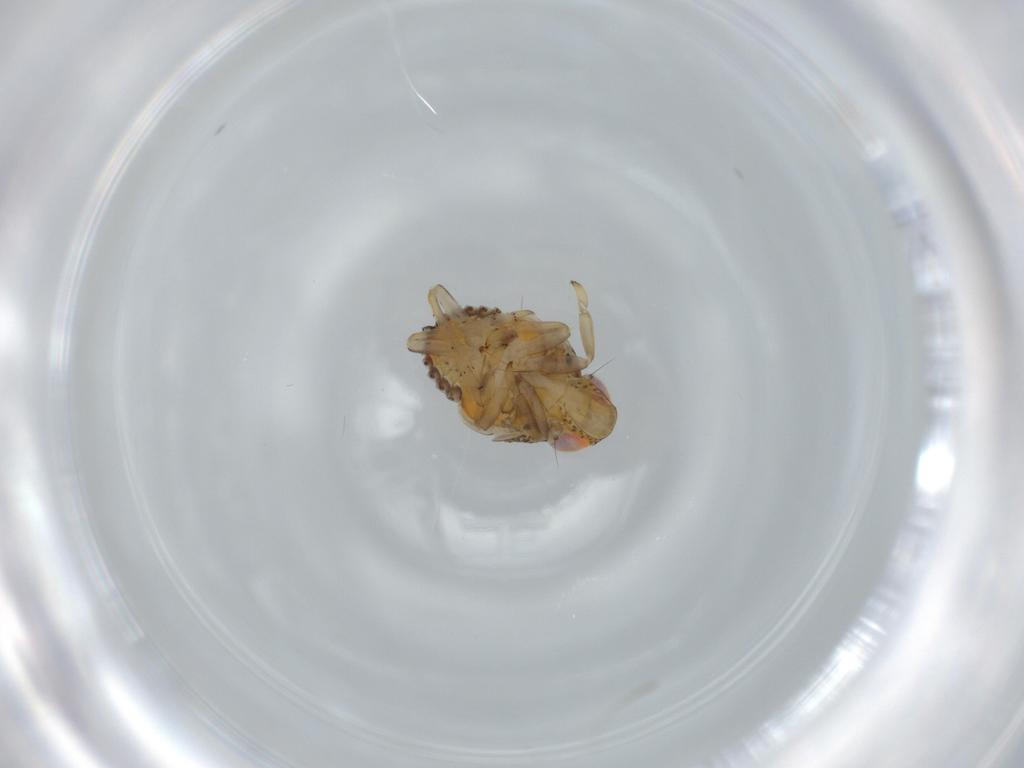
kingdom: Animalia
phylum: Arthropoda
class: Insecta
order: Hemiptera
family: Issidae
